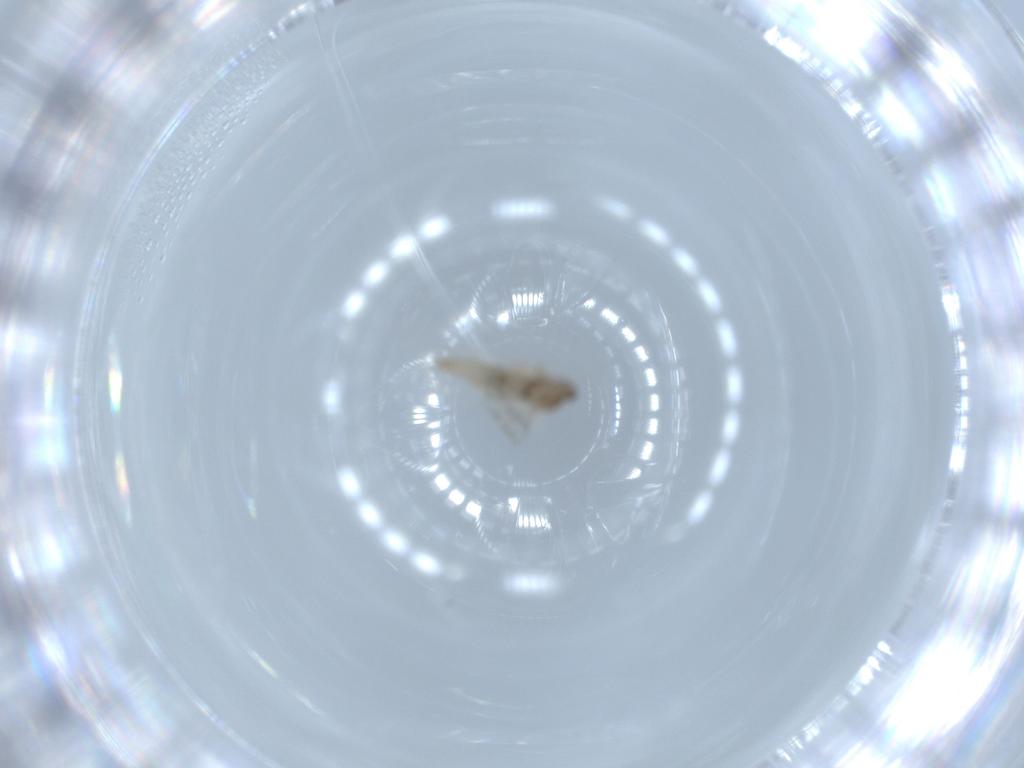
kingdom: Animalia
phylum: Arthropoda
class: Insecta
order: Diptera
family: Cecidomyiidae
